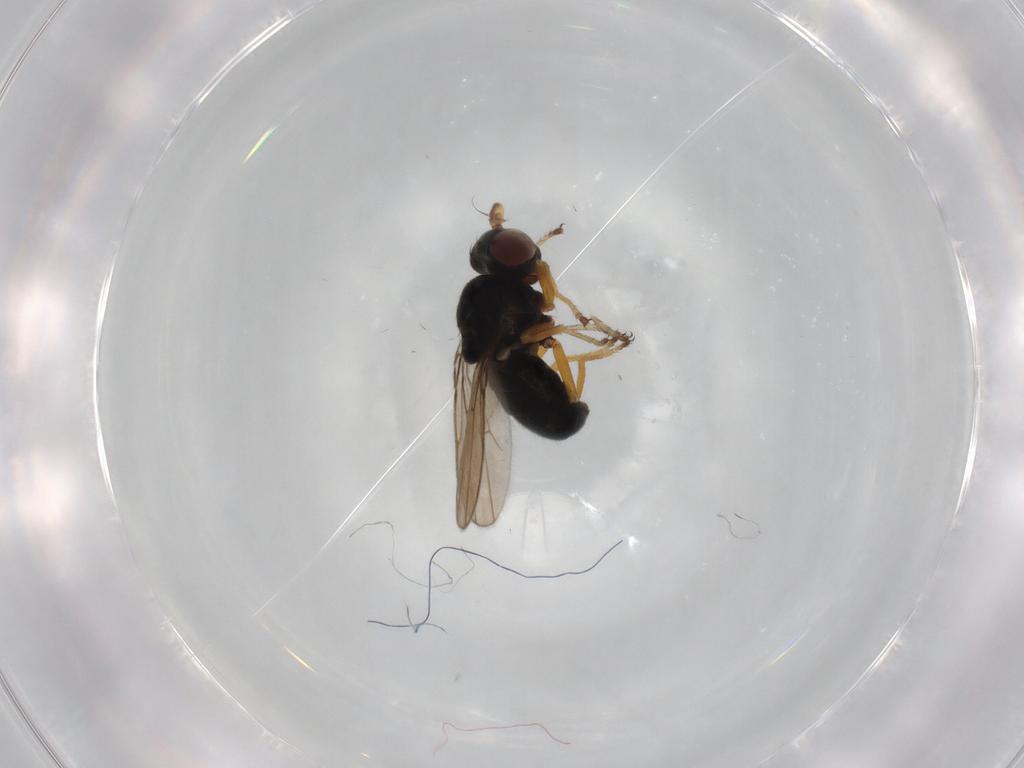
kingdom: Animalia
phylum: Arthropoda
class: Insecta
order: Diptera
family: Ephydridae
